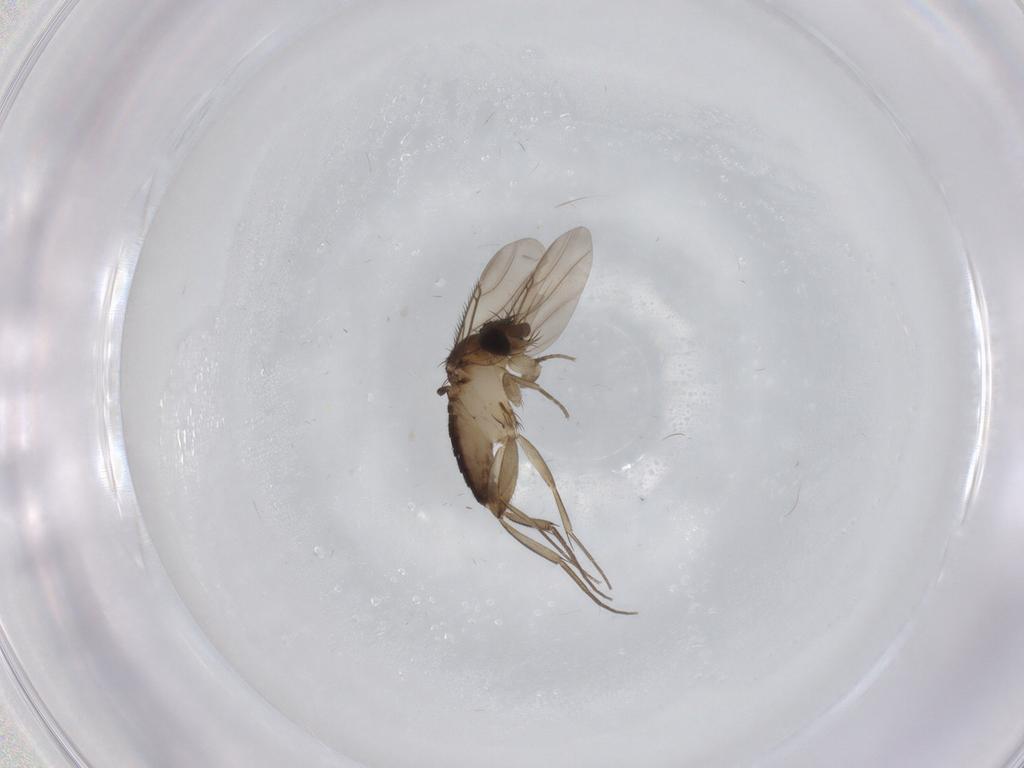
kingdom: Animalia
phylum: Arthropoda
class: Insecta
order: Diptera
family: Phoridae
